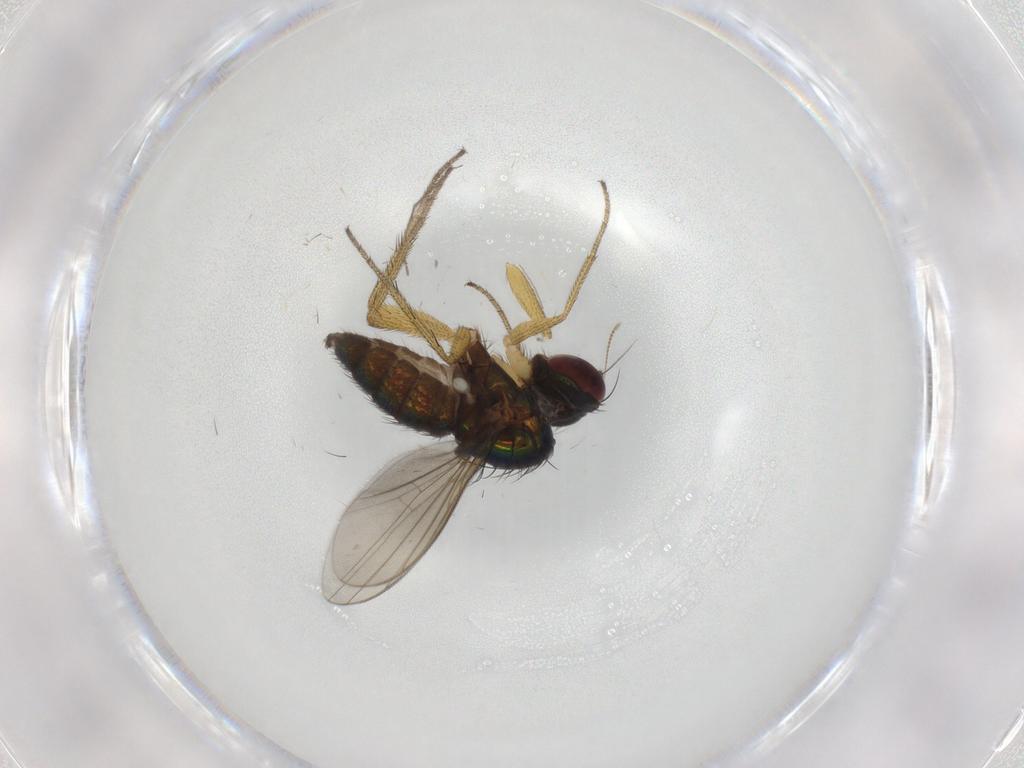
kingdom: Animalia
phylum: Arthropoda
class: Insecta
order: Diptera
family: Chironomidae
